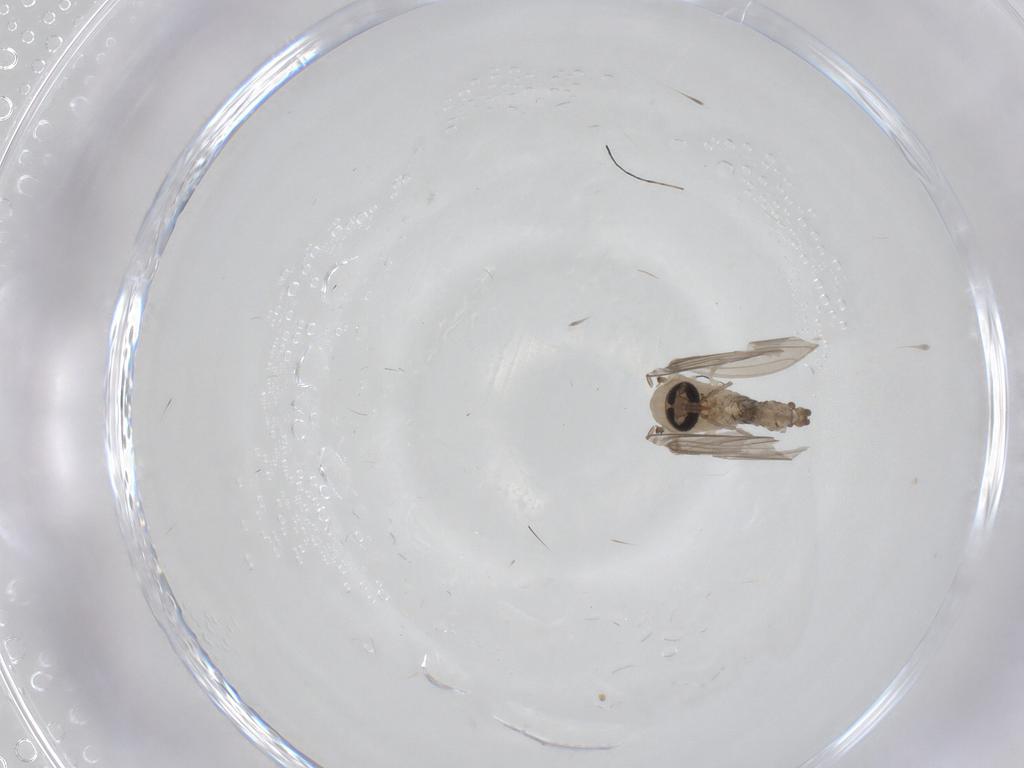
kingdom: Animalia
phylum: Arthropoda
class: Insecta
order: Diptera
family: Psychodidae
